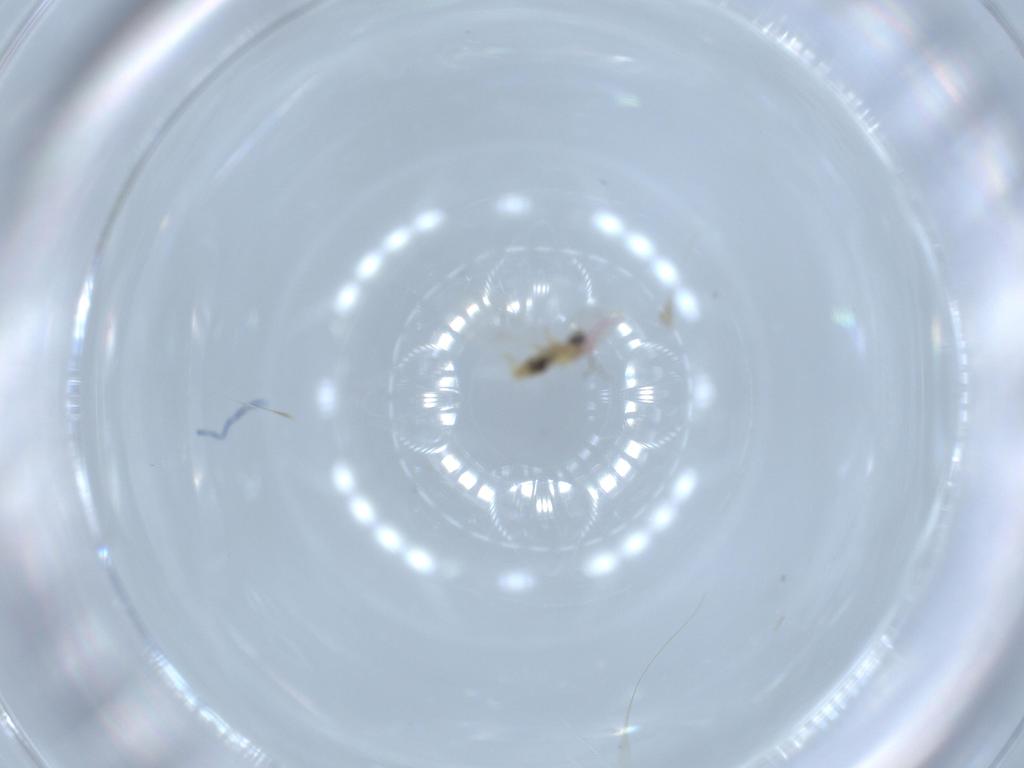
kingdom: Animalia
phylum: Arthropoda
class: Insecta
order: Diptera
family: Cecidomyiidae
